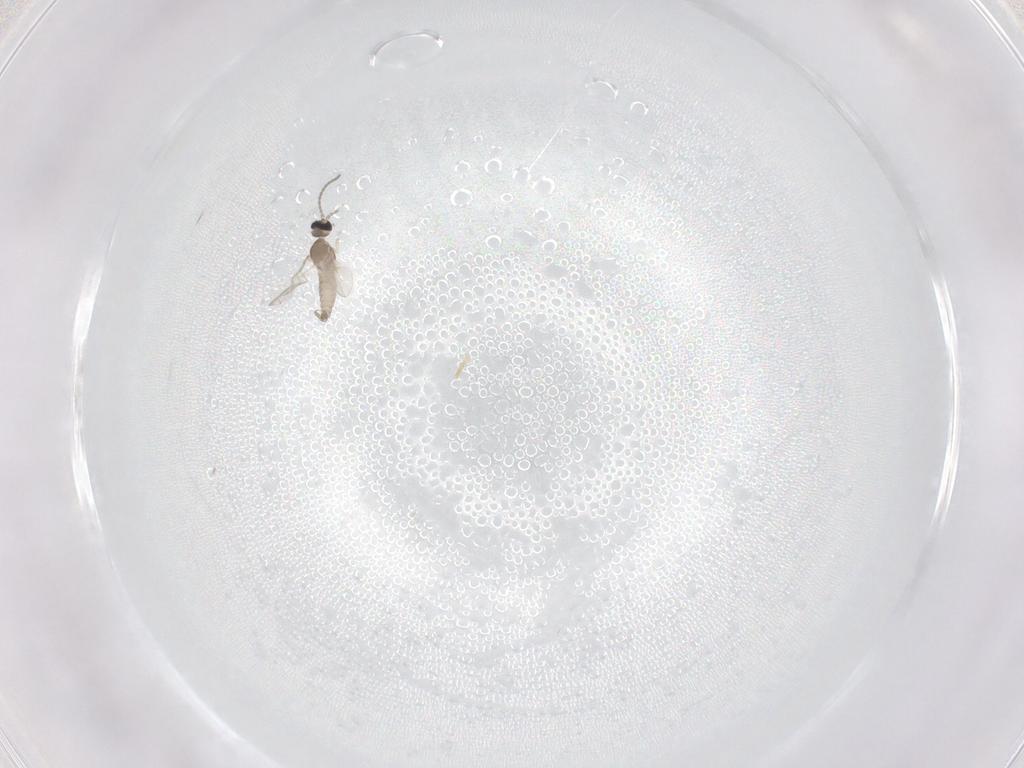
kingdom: Animalia
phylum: Arthropoda
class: Insecta
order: Diptera
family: Cecidomyiidae
